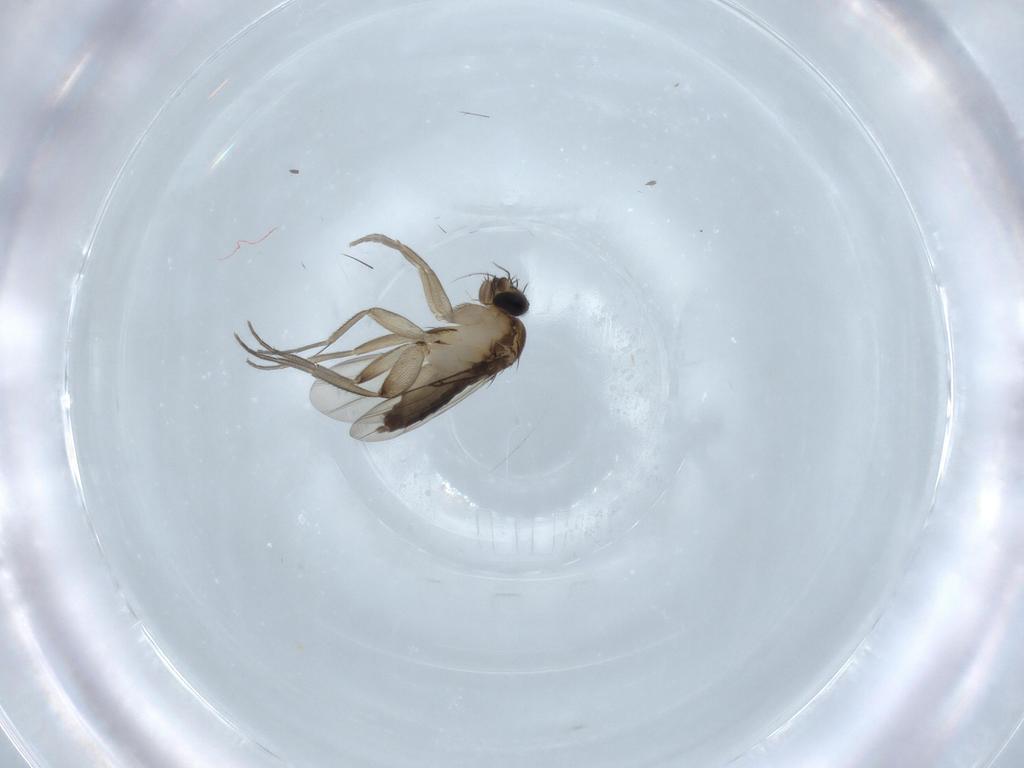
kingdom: Animalia
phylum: Arthropoda
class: Insecta
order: Diptera
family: Phoridae
